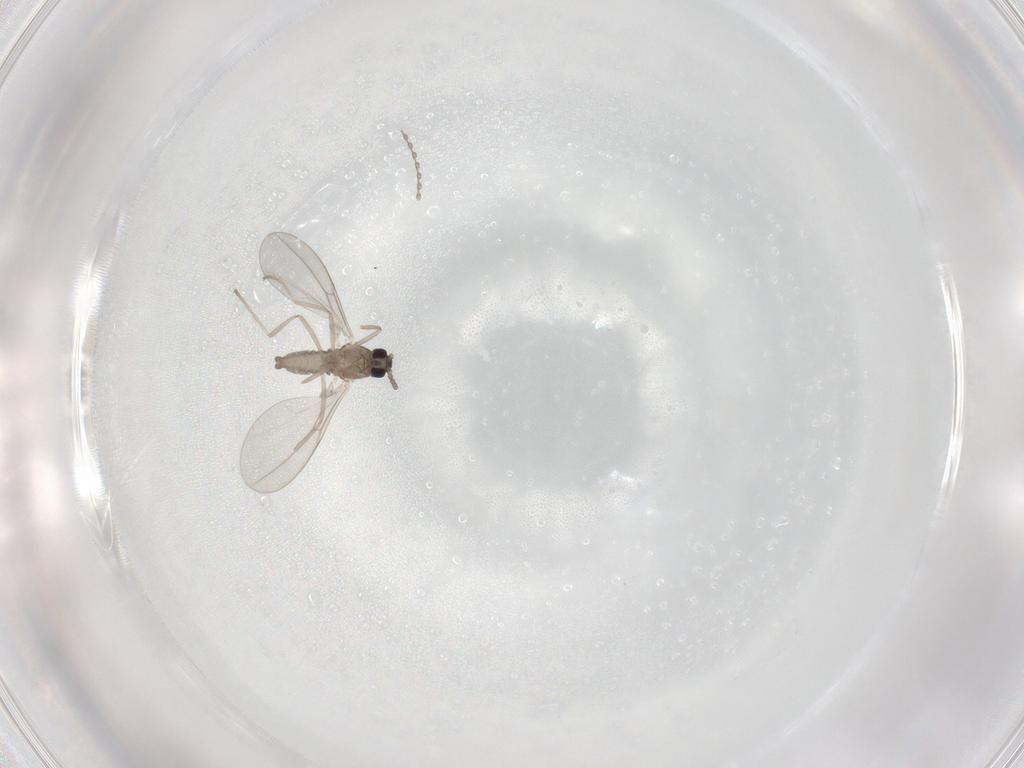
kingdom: Animalia
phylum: Arthropoda
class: Insecta
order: Diptera
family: Cecidomyiidae
